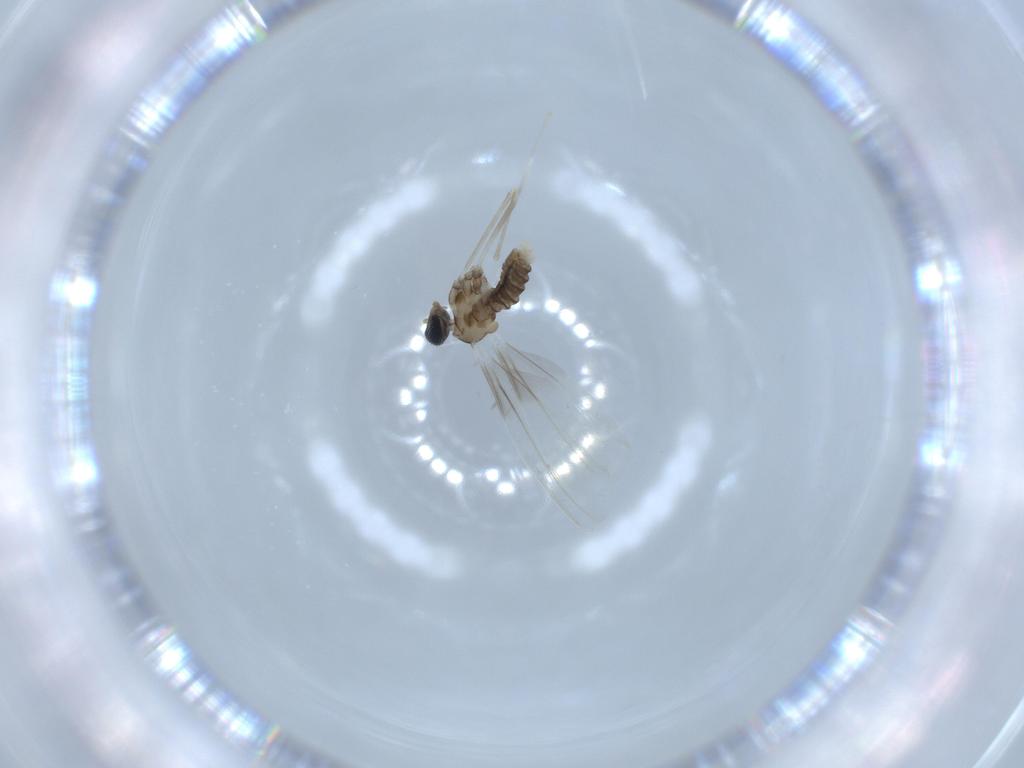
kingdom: Animalia
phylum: Arthropoda
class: Insecta
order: Diptera
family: Cecidomyiidae
